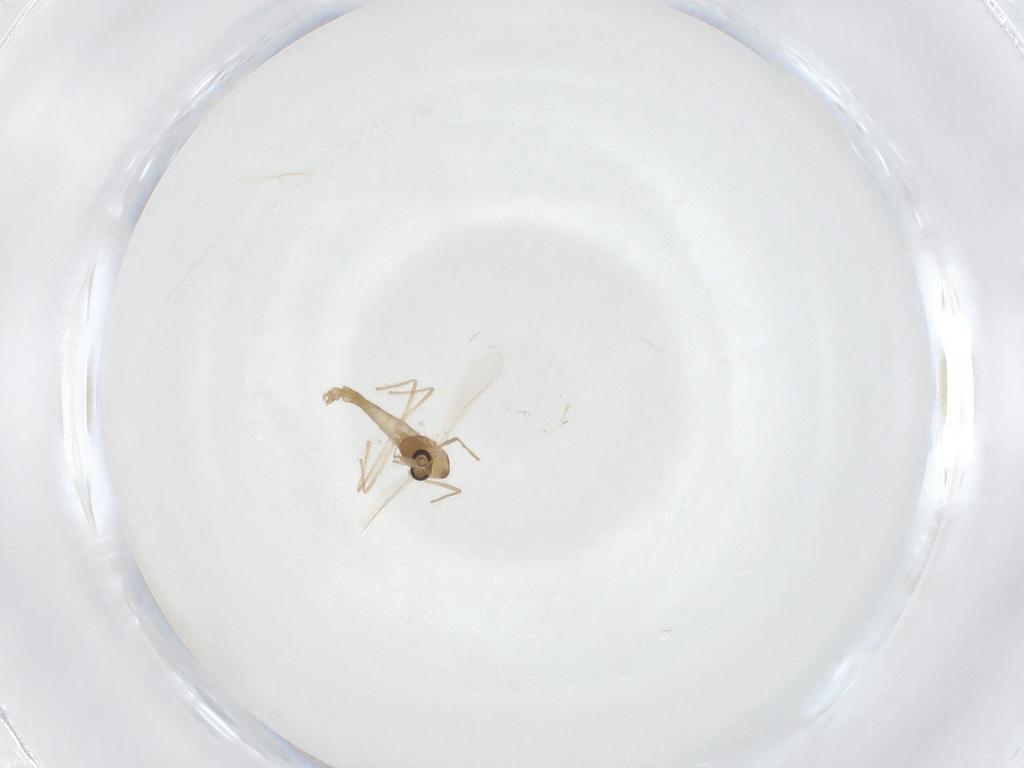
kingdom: Animalia
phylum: Arthropoda
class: Insecta
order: Diptera
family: Chironomidae
